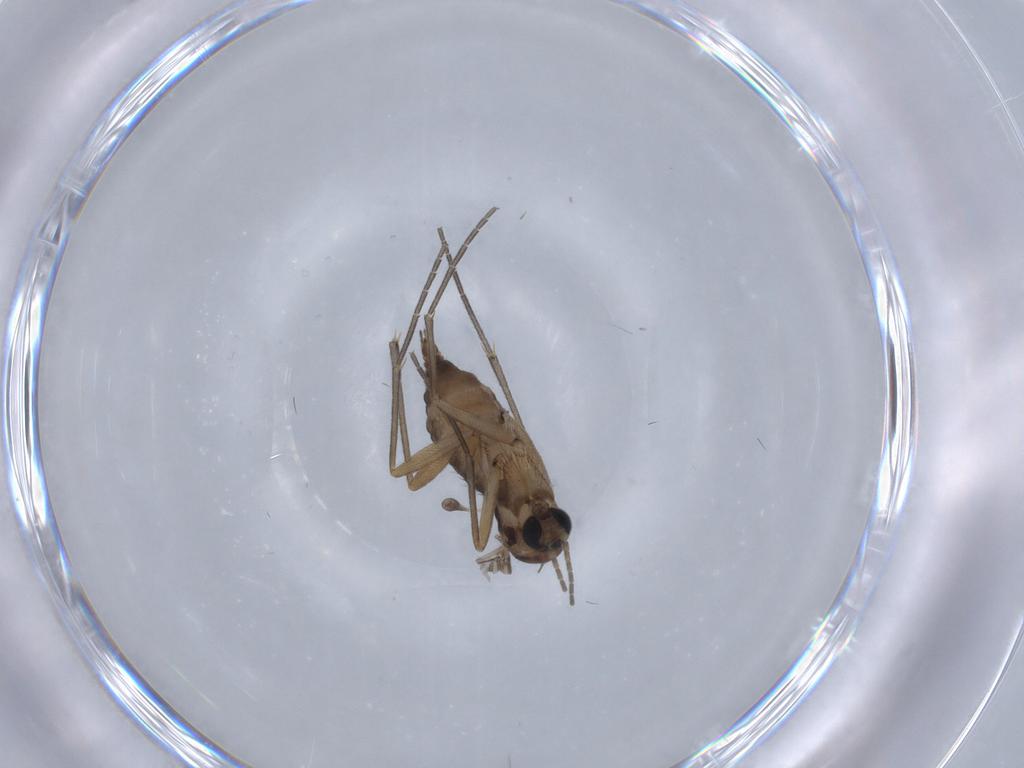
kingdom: Animalia
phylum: Arthropoda
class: Insecta
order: Diptera
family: Sciaridae
